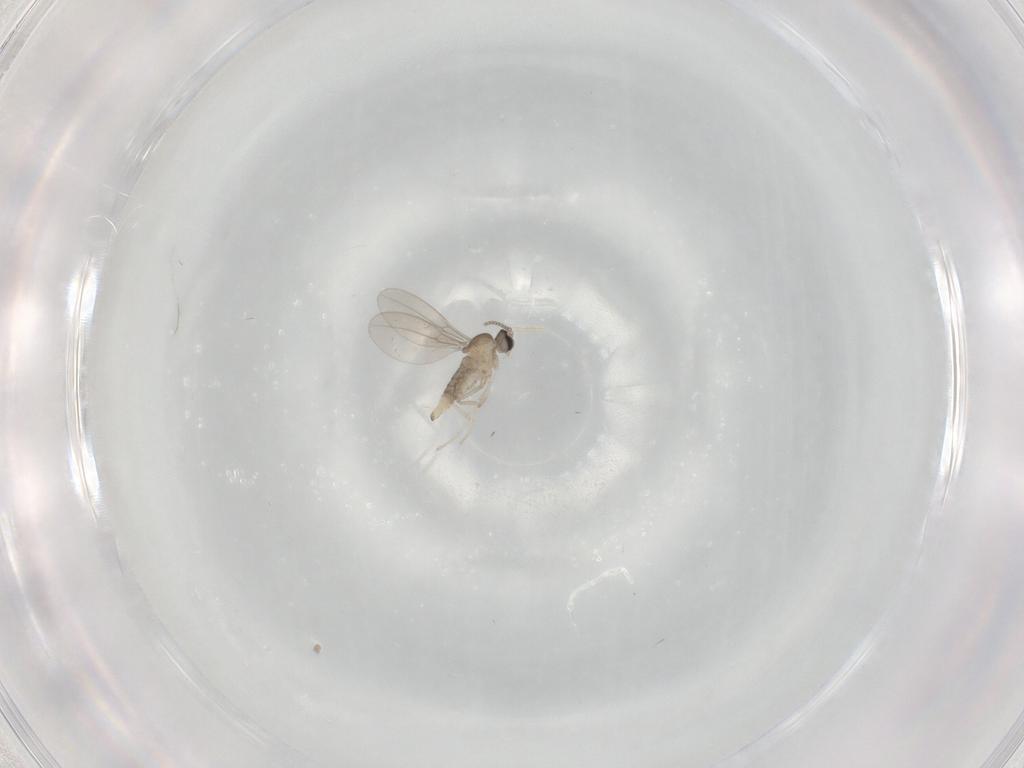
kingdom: Animalia
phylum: Arthropoda
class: Insecta
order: Diptera
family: Cecidomyiidae
